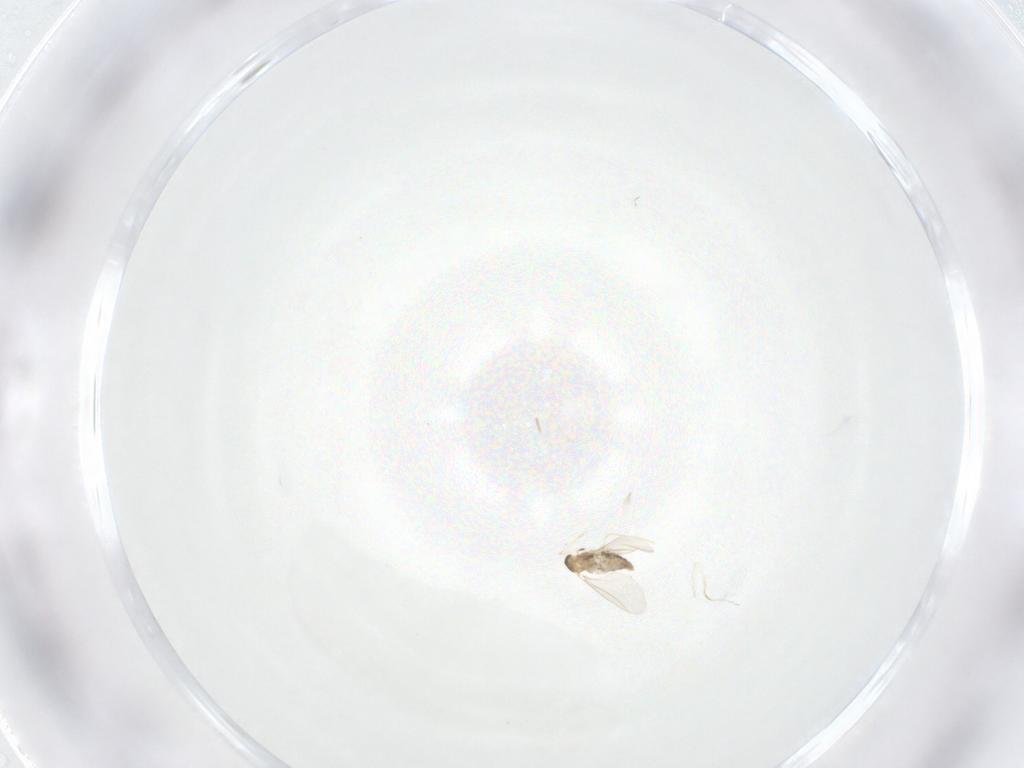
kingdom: Animalia
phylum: Arthropoda
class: Insecta
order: Diptera
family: Cecidomyiidae
